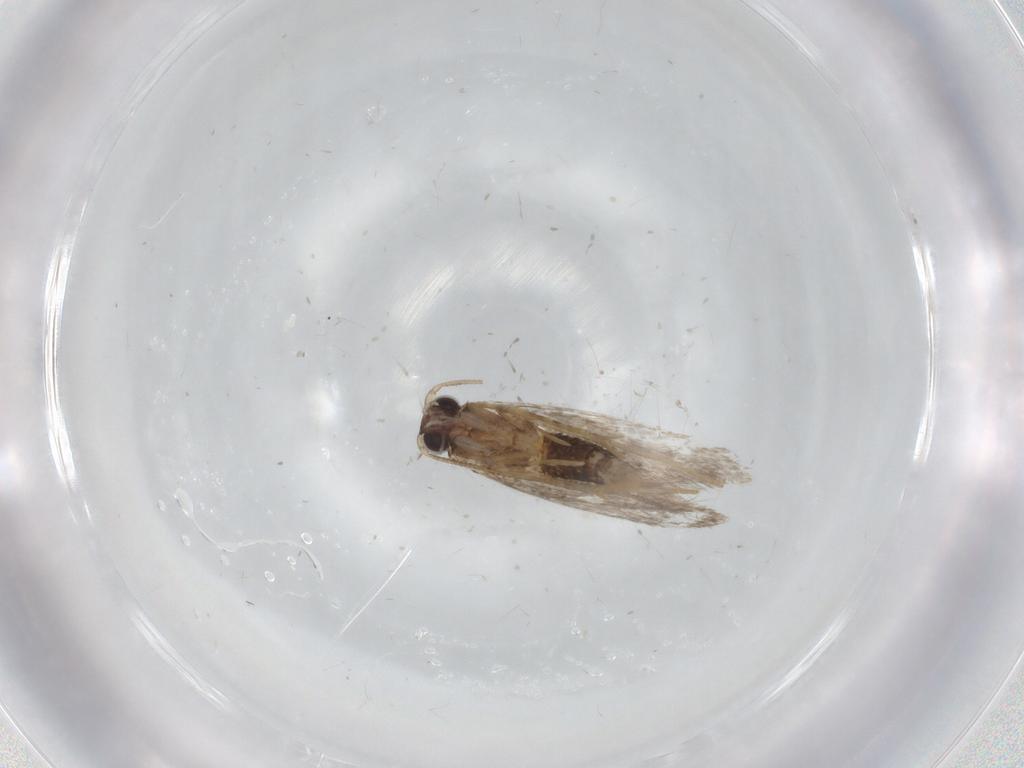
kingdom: Animalia
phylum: Arthropoda
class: Insecta
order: Lepidoptera
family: Tineidae
